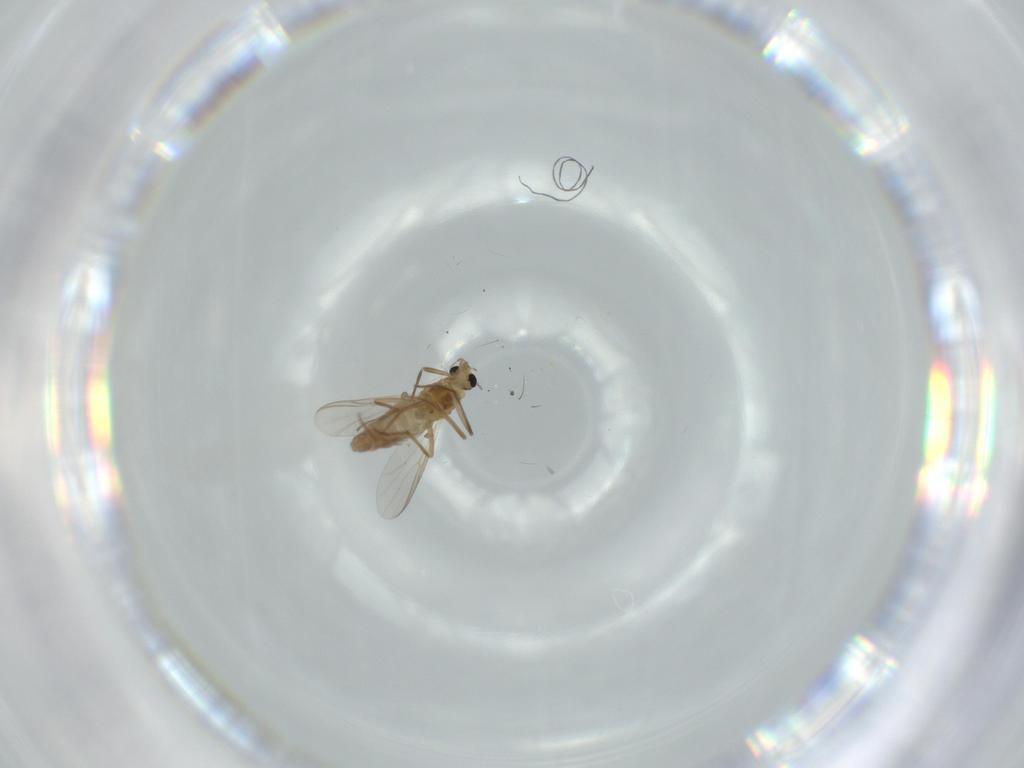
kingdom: Animalia
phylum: Arthropoda
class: Insecta
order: Diptera
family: Chironomidae
